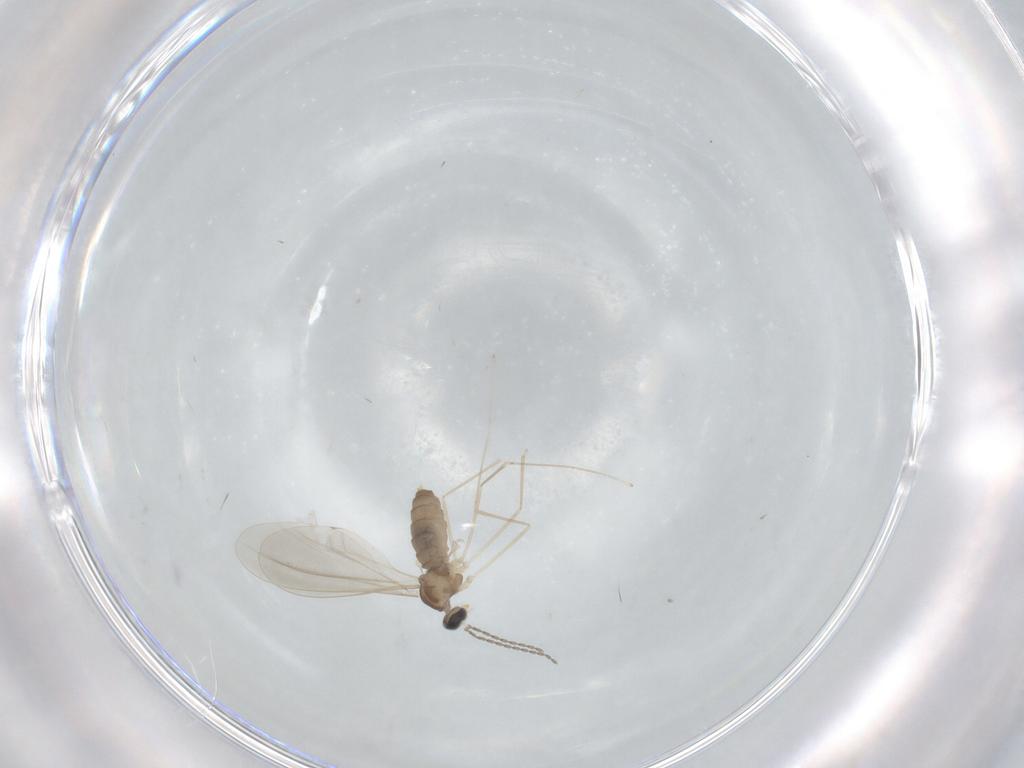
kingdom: Animalia
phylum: Arthropoda
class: Insecta
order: Diptera
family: Cecidomyiidae
